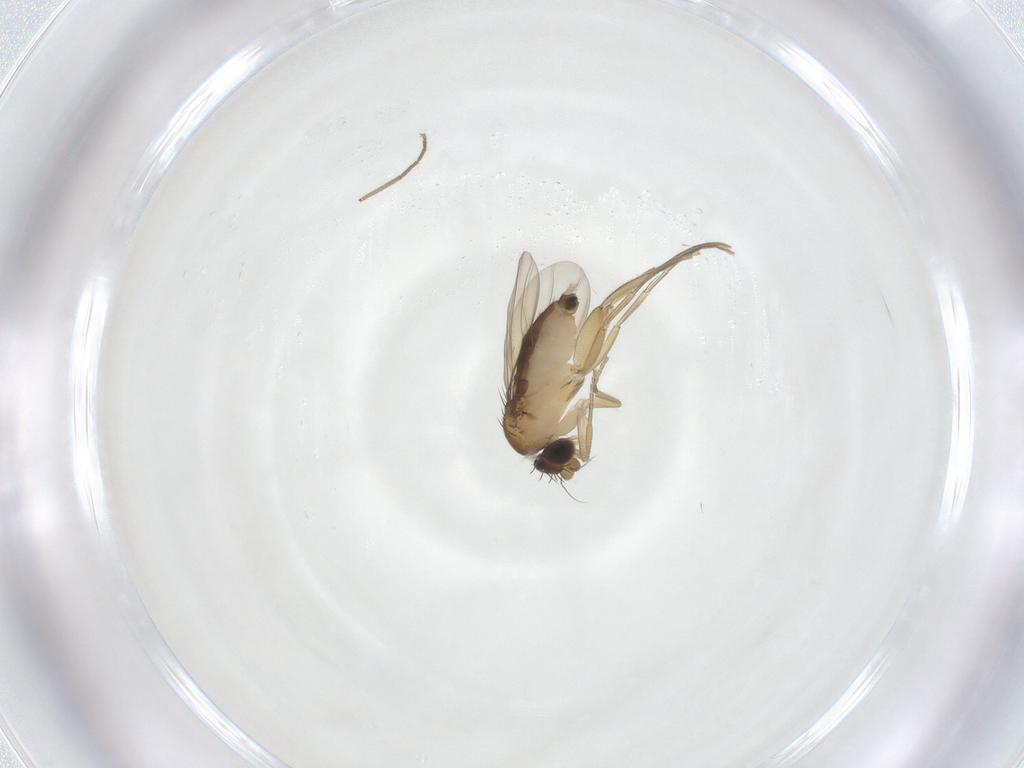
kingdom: Animalia
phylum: Arthropoda
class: Insecta
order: Diptera
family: Phoridae
